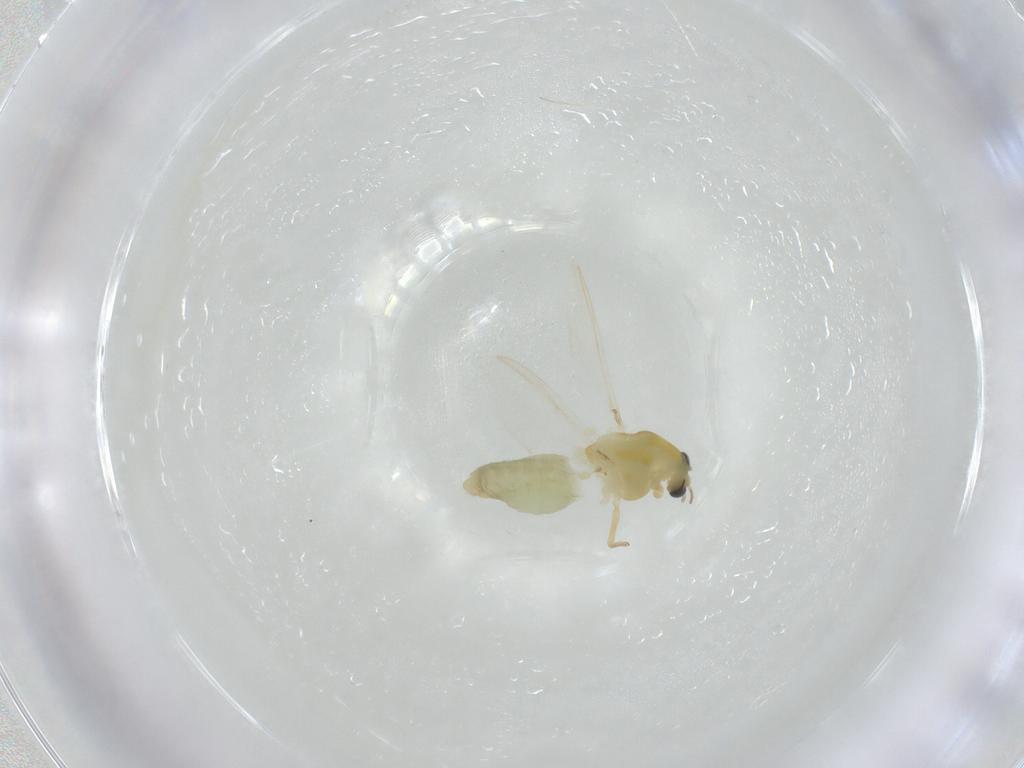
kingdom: Animalia
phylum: Arthropoda
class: Insecta
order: Diptera
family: Chironomidae
